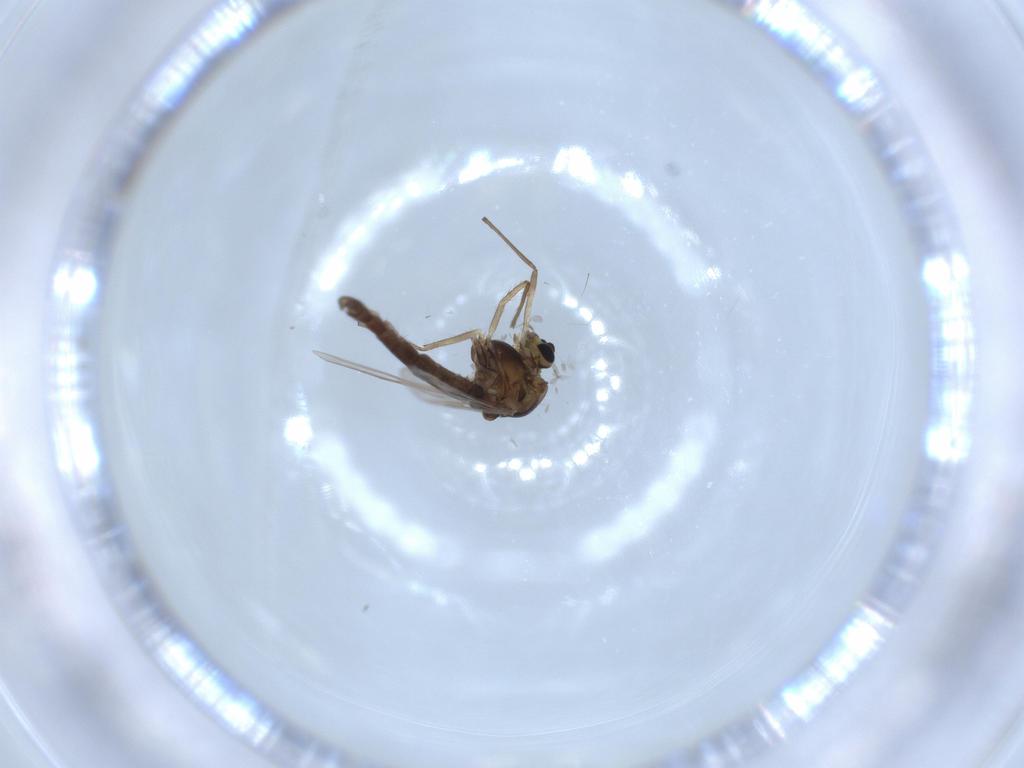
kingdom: Animalia
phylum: Arthropoda
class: Insecta
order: Diptera
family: Chironomidae
